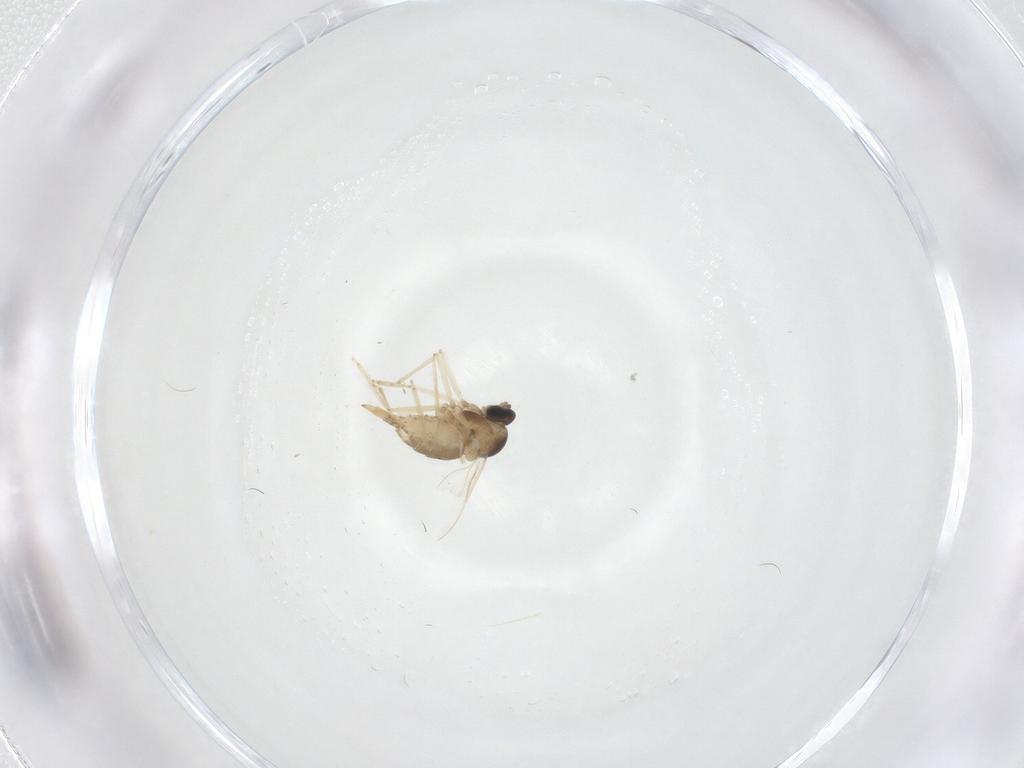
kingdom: Animalia
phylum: Arthropoda
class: Insecta
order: Diptera
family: Cecidomyiidae
